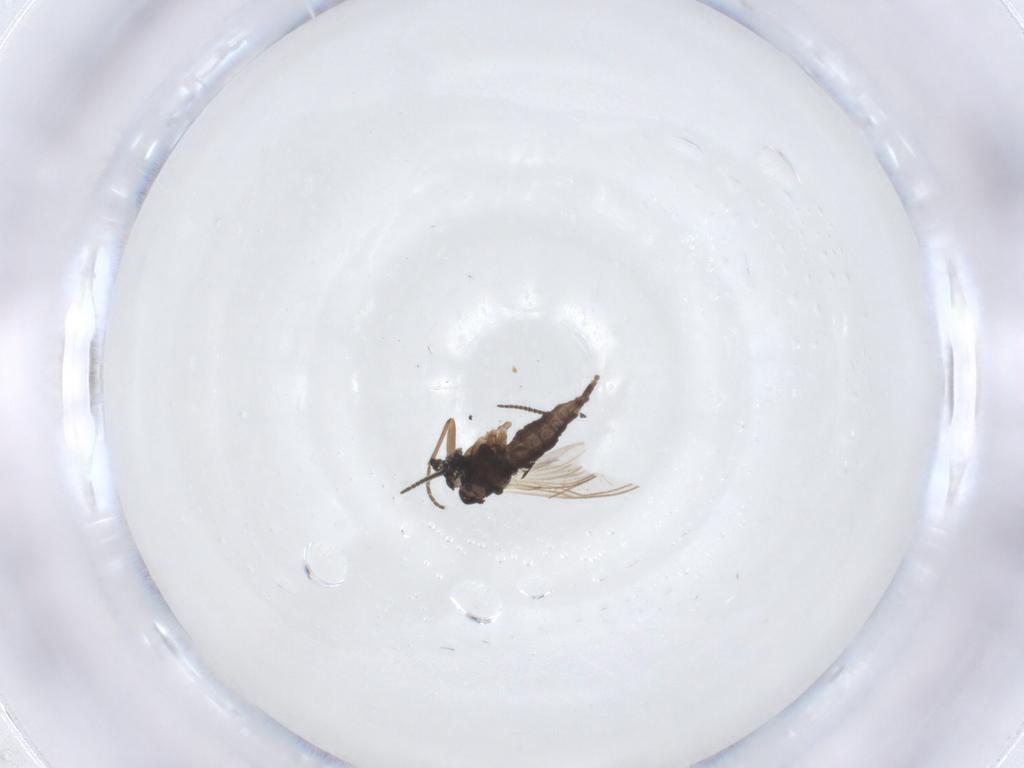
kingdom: Animalia
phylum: Arthropoda
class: Insecta
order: Diptera
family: Sciaridae
